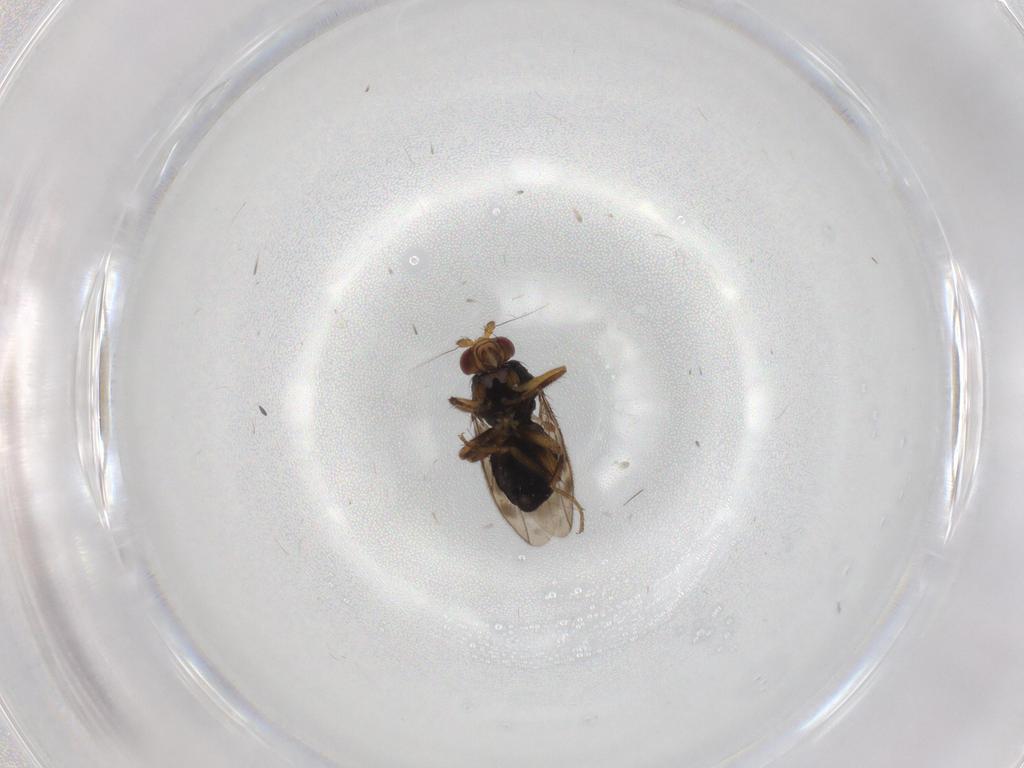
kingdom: Animalia
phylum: Arthropoda
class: Insecta
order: Diptera
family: Sphaeroceridae
